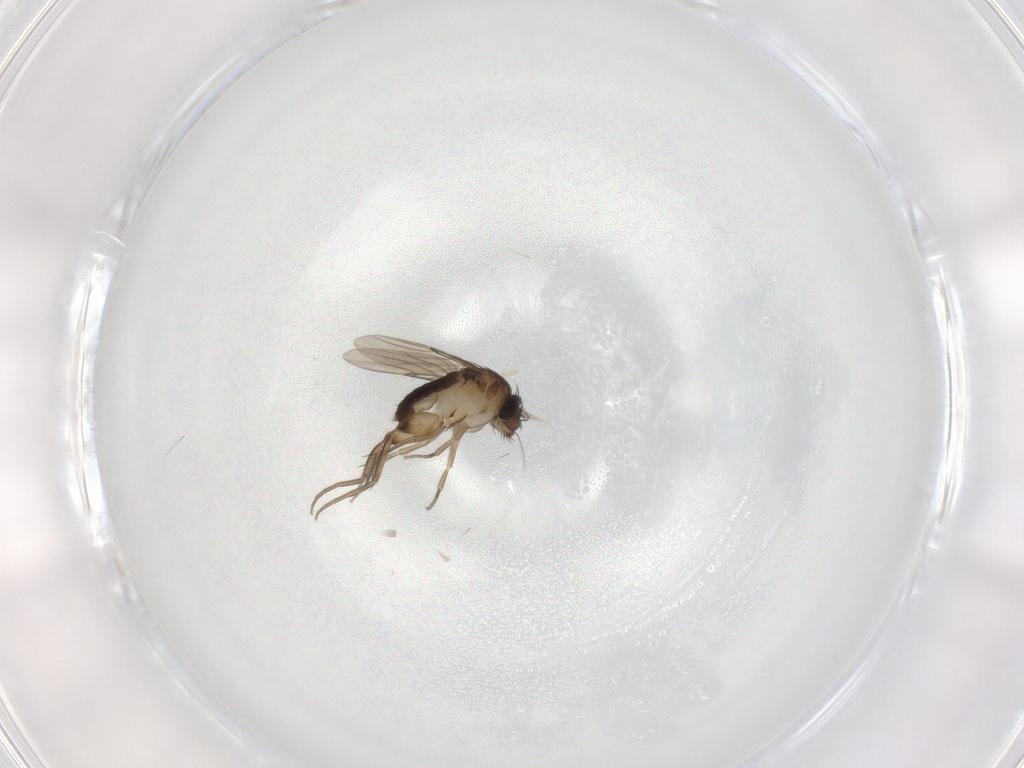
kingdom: Animalia
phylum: Arthropoda
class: Insecta
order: Diptera
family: Phoridae
